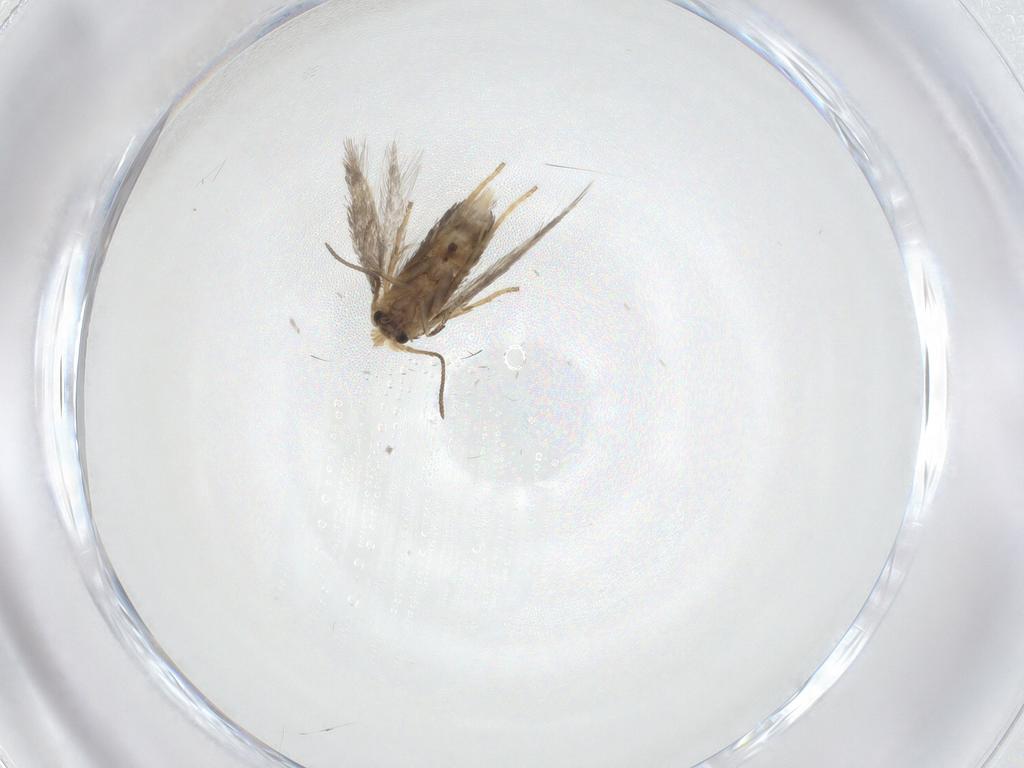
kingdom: Animalia
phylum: Arthropoda
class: Insecta
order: Lepidoptera
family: Nepticulidae
